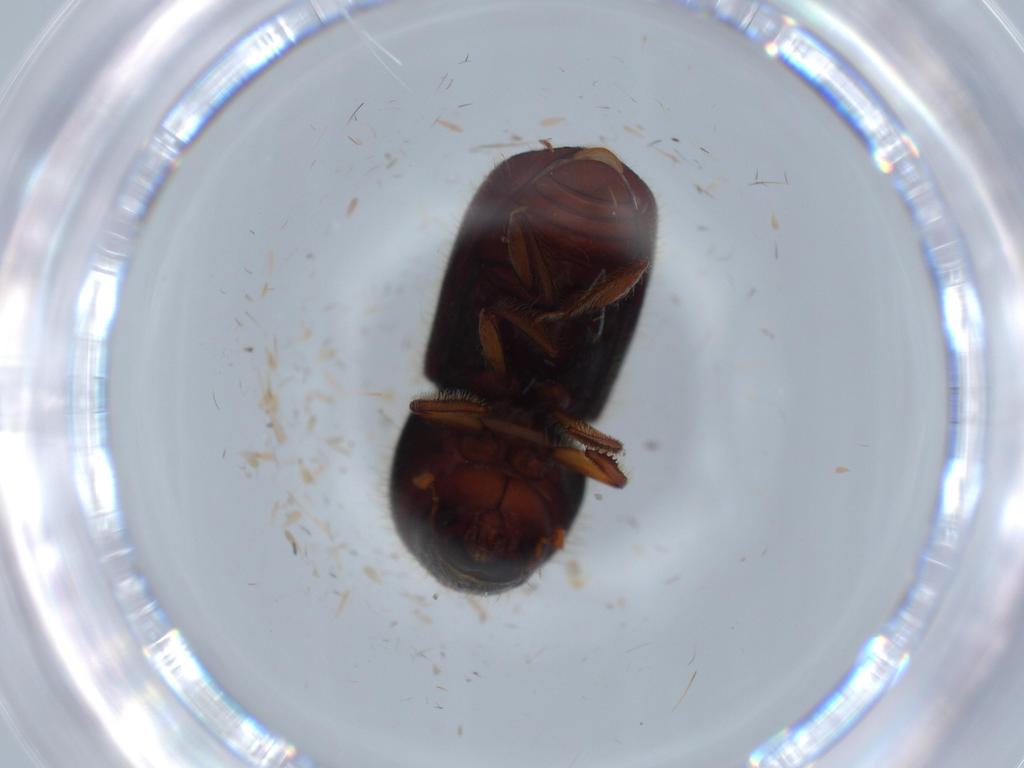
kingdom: Animalia
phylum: Arthropoda
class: Insecta
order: Coleoptera
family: Curculionidae
